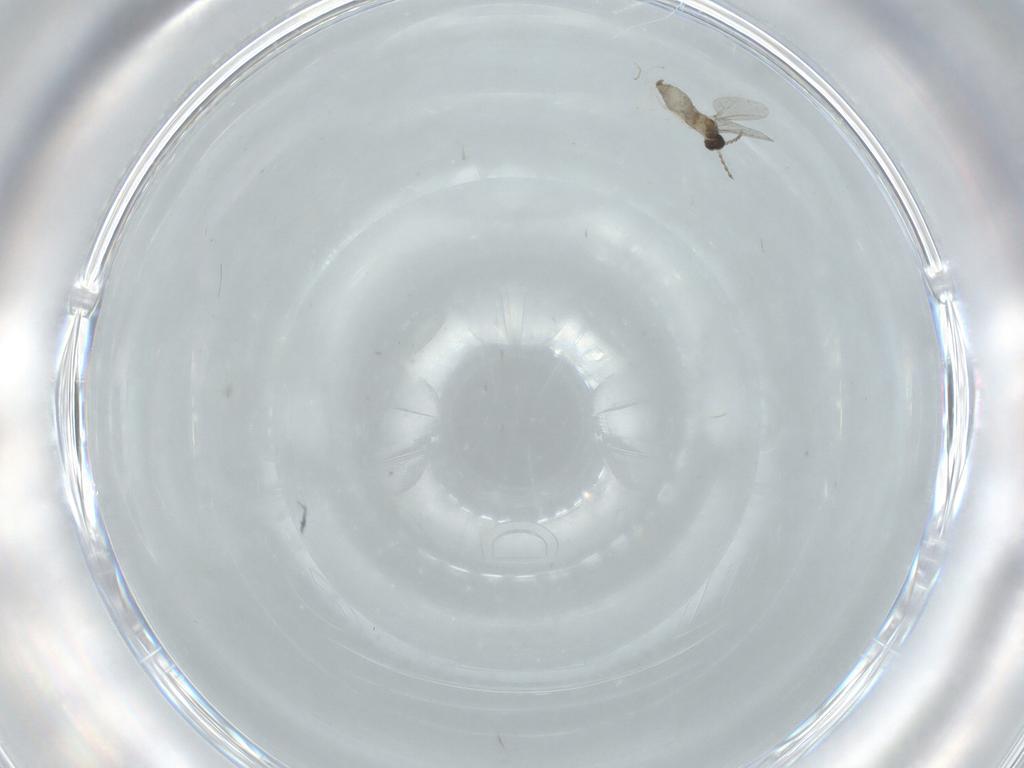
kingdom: Animalia
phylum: Arthropoda
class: Insecta
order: Diptera
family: Cecidomyiidae
